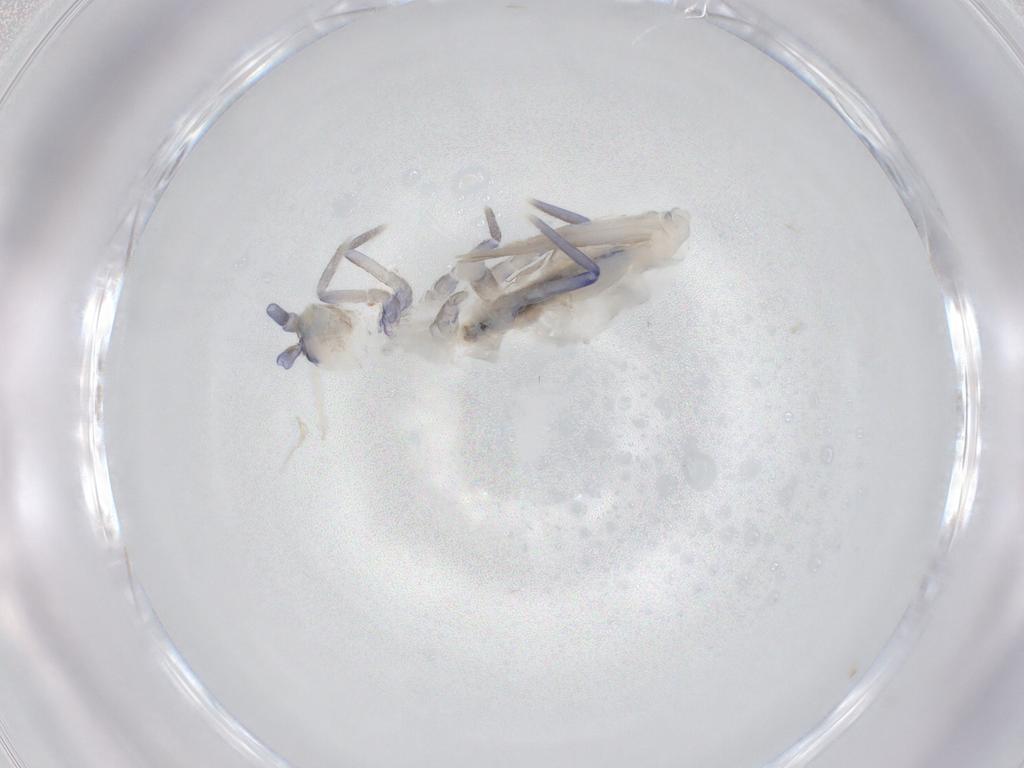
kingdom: Animalia
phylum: Arthropoda
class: Collembola
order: Entomobryomorpha
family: Tomoceridae
